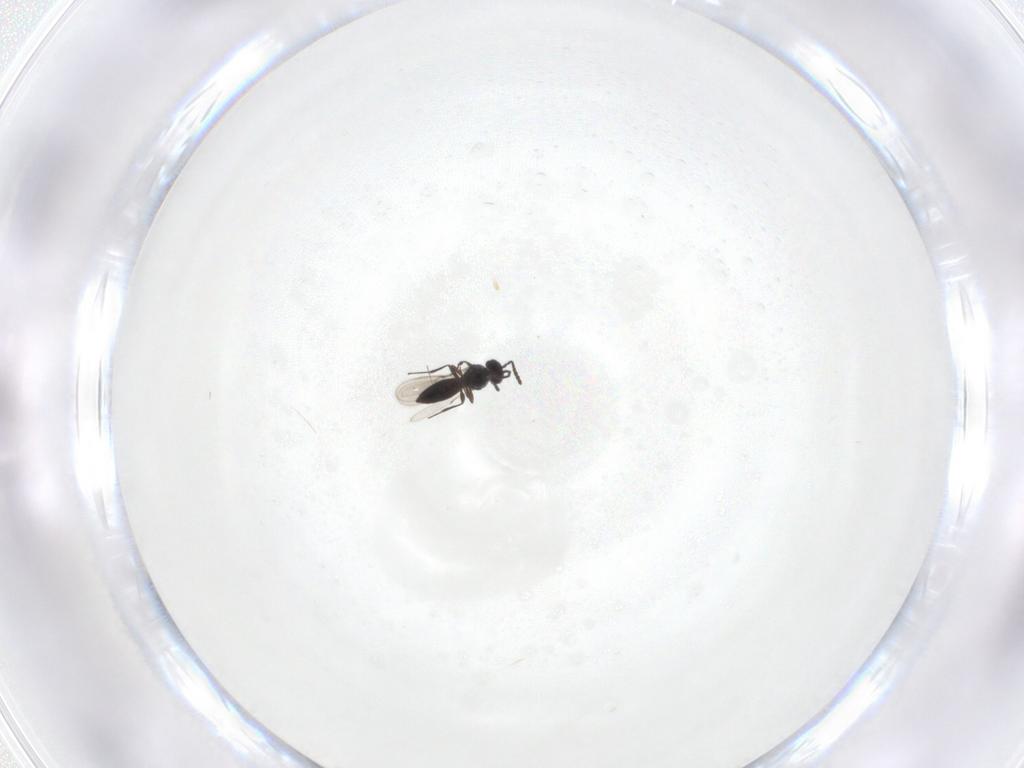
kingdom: Animalia
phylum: Arthropoda
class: Insecta
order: Hymenoptera
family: Scelionidae
